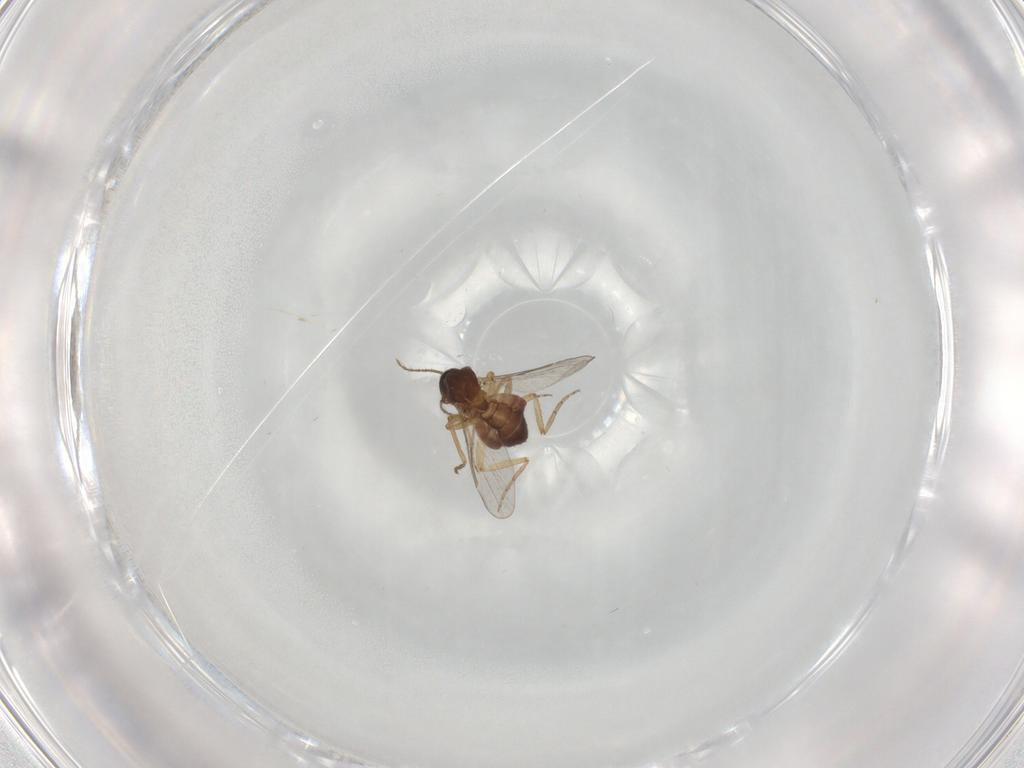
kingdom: Animalia
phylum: Arthropoda
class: Insecta
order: Diptera
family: Ceratopogonidae
